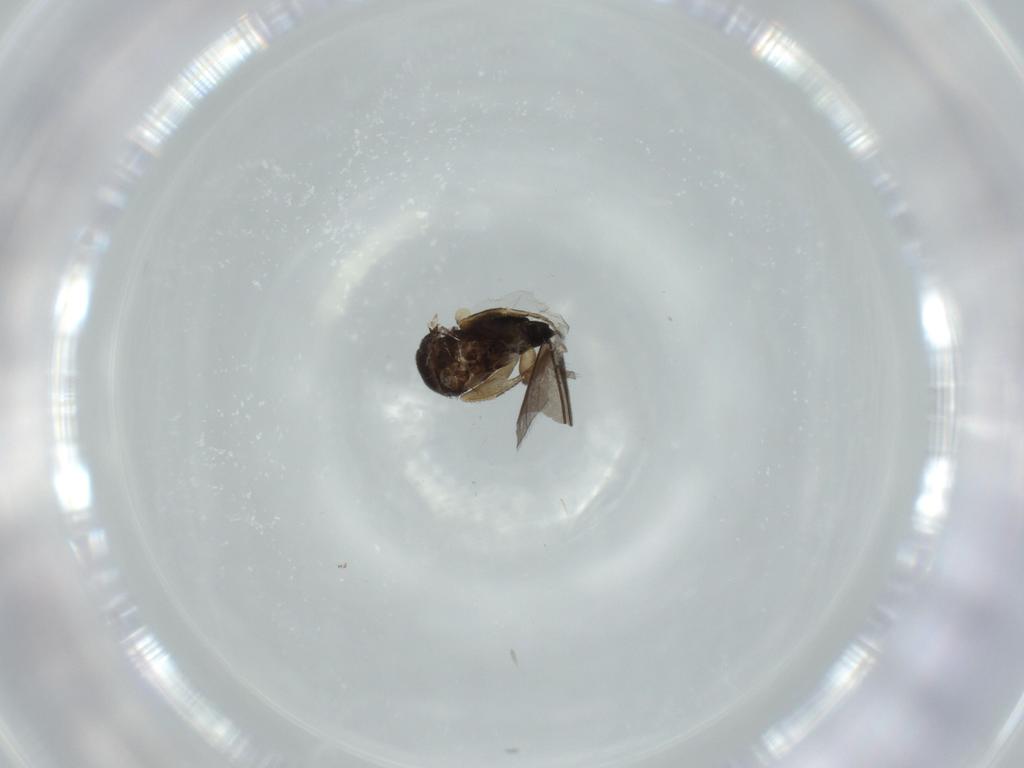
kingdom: Animalia
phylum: Arthropoda
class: Insecta
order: Diptera
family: Sciaridae
